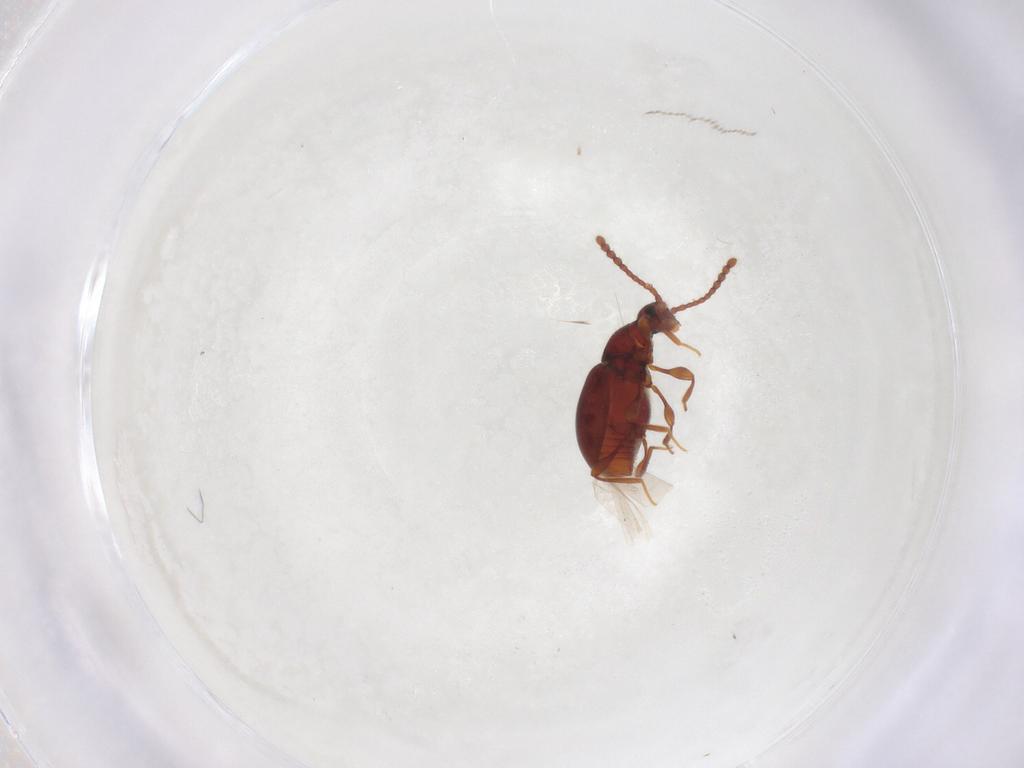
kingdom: Animalia
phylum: Arthropoda
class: Insecta
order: Coleoptera
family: Staphylinidae
